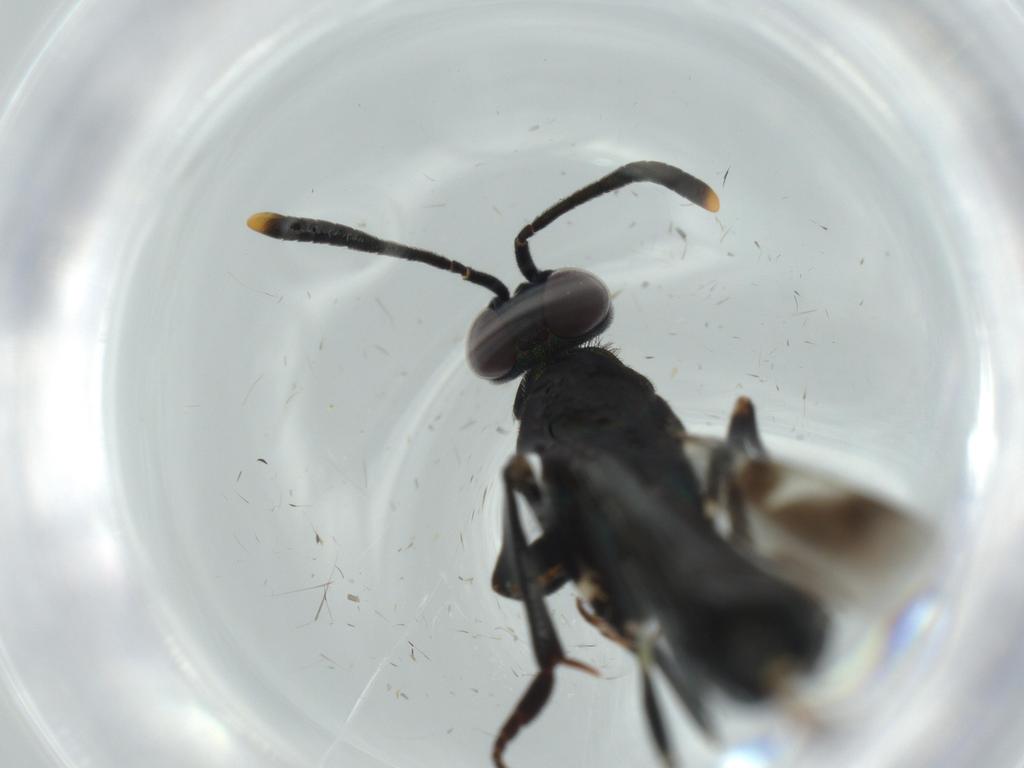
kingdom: Animalia
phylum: Arthropoda
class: Insecta
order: Hymenoptera
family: Eupelmidae
